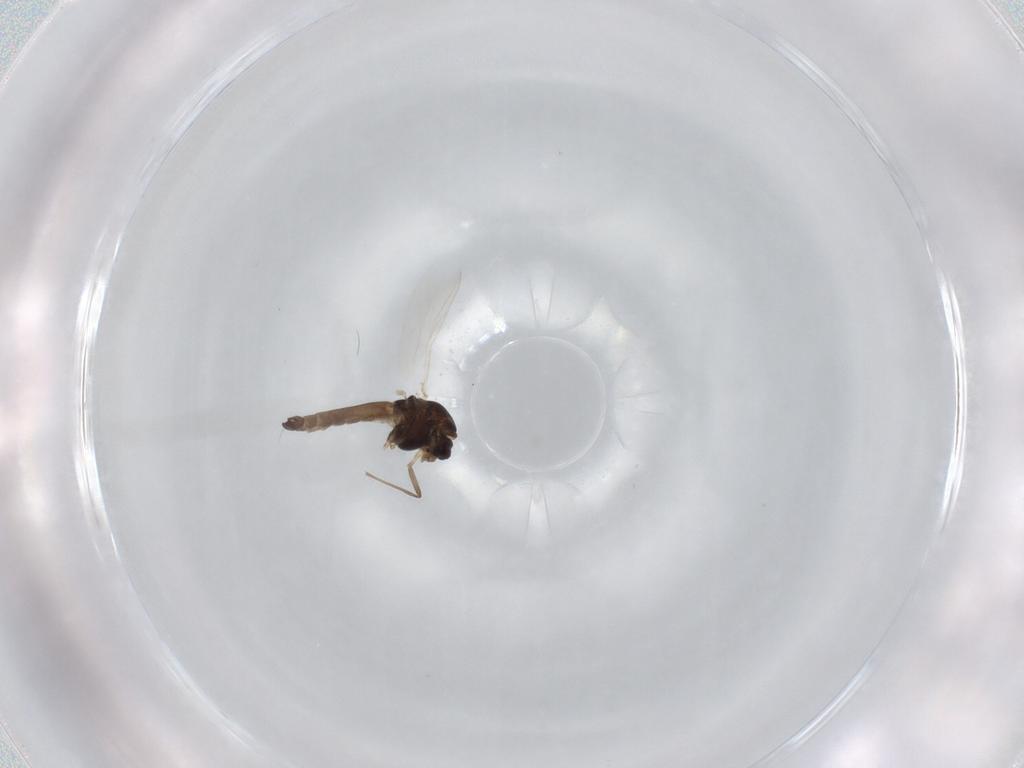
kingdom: Animalia
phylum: Arthropoda
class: Insecta
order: Diptera
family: Chironomidae
